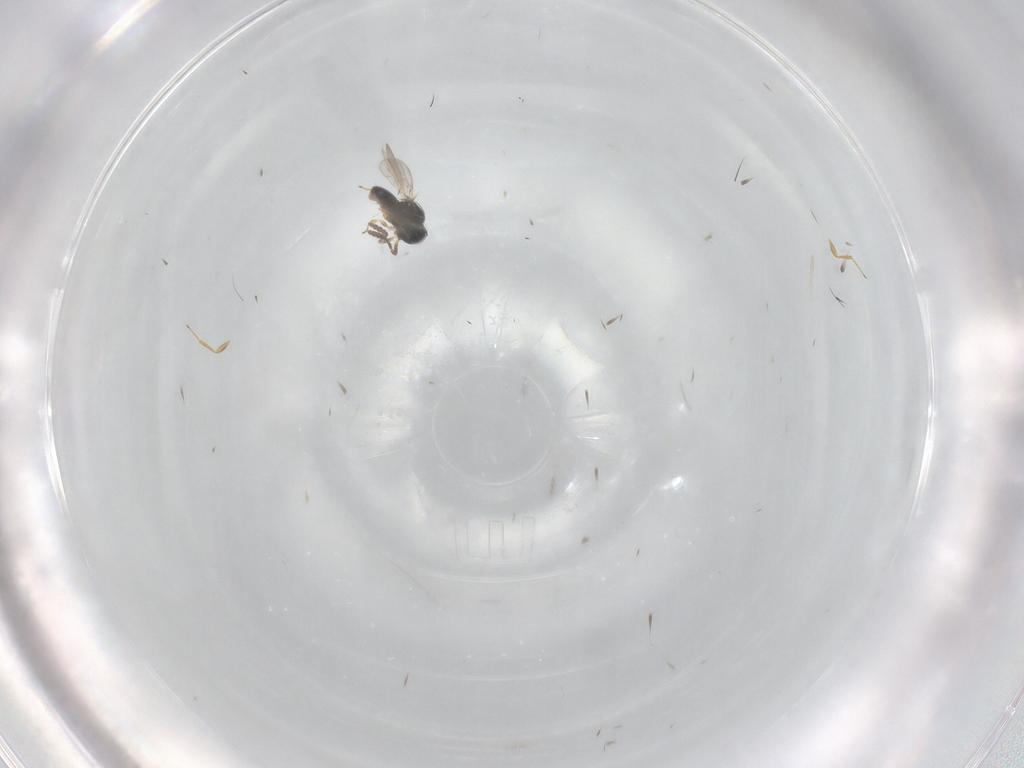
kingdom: Animalia
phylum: Arthropoda
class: Insecta
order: Hymenoptera
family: Scelionidae
